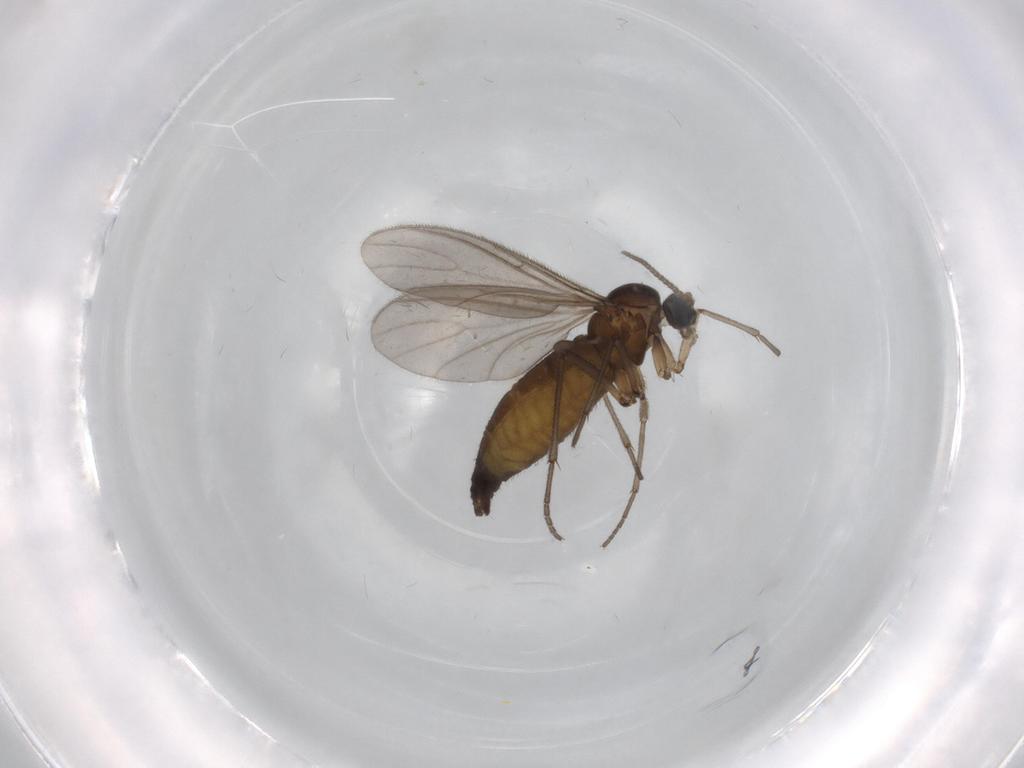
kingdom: Animalia
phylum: Arthropoda
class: Insecta
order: Diptera
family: Sciaridae
